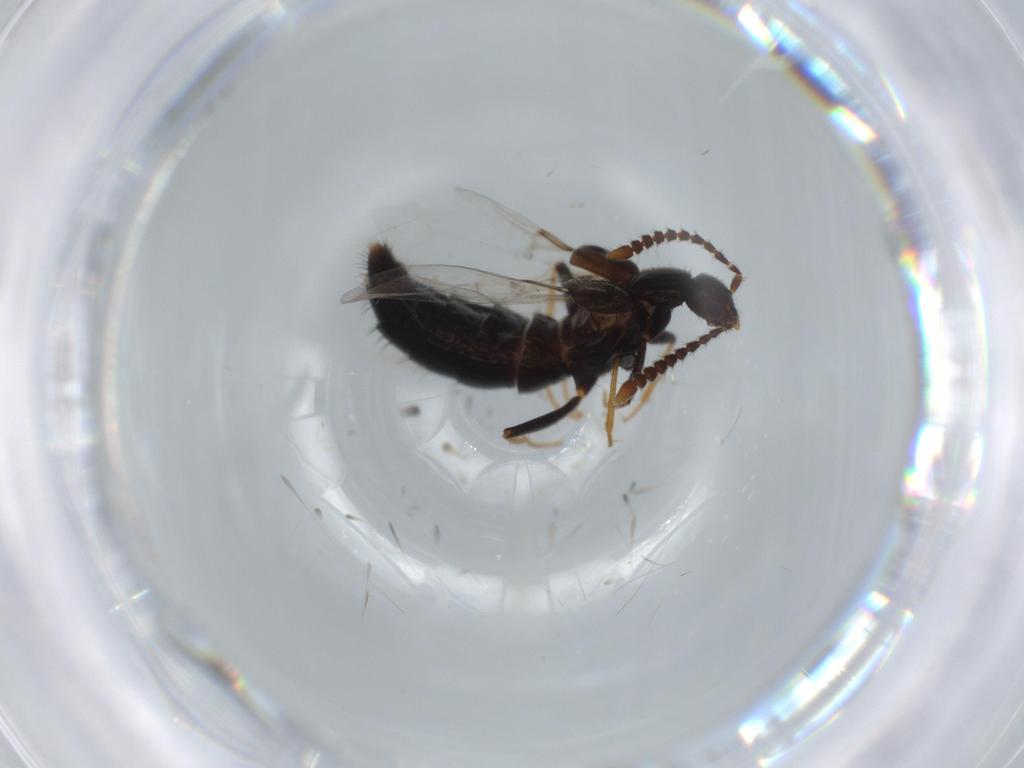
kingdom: Animalia
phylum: Arthropoda
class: Insecta
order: Coleoptera
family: Staphylinidae
